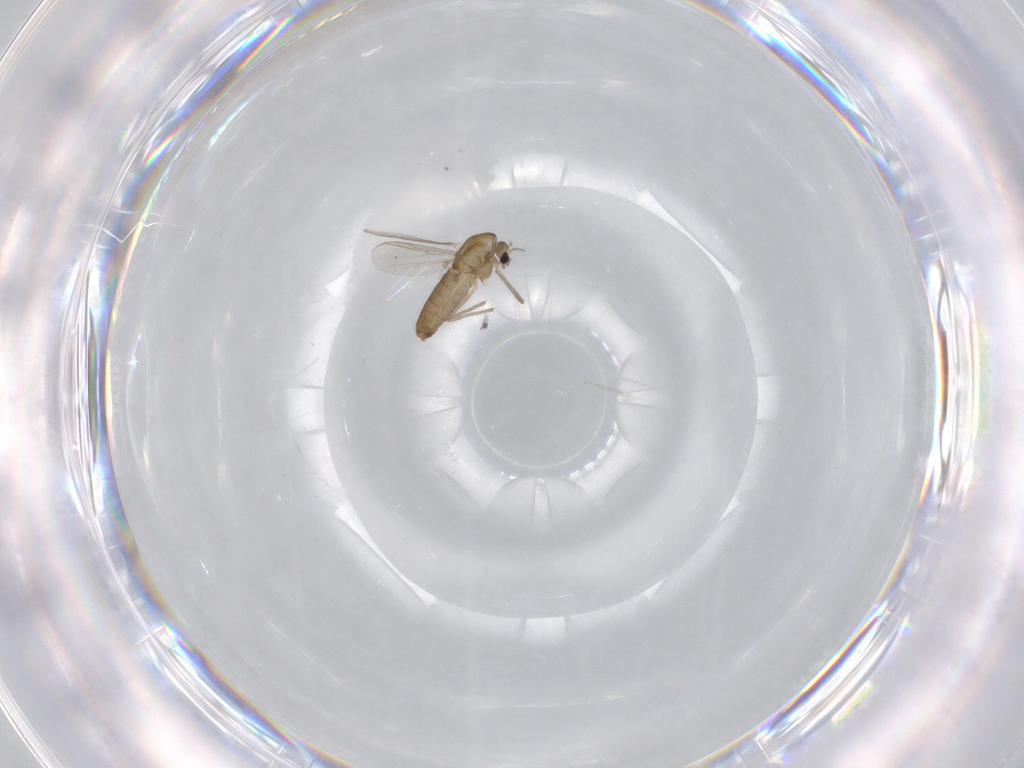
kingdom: Animalia
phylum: Arthropoda
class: Insecta
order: Diptera
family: Chironomidae
